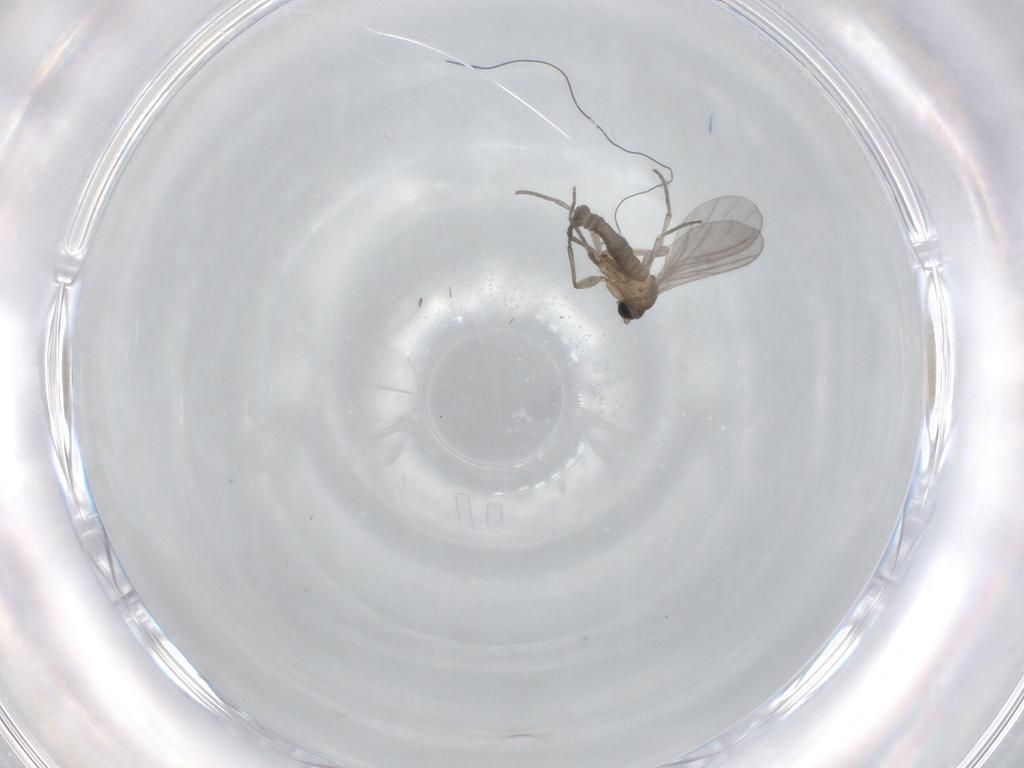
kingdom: Animalia
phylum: Arthropoda
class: Insecta
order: Diptera
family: Sciaridae
